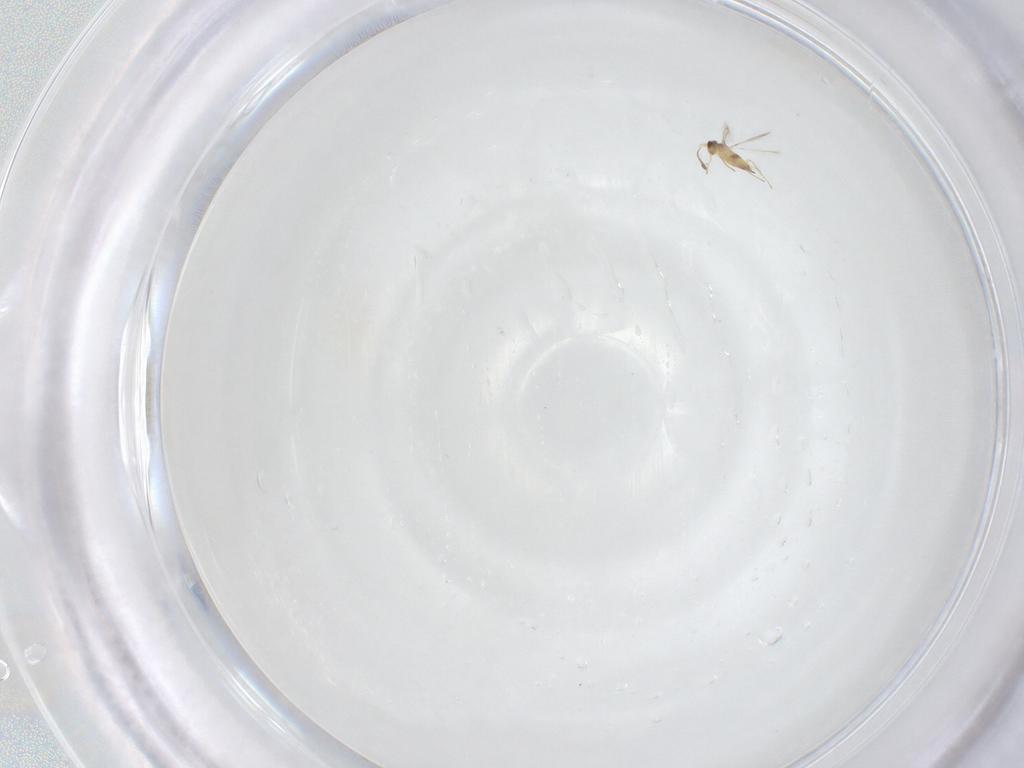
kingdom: Animalia
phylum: Arthropoda
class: Insecta
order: Hymenoptera
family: Mymaridae
